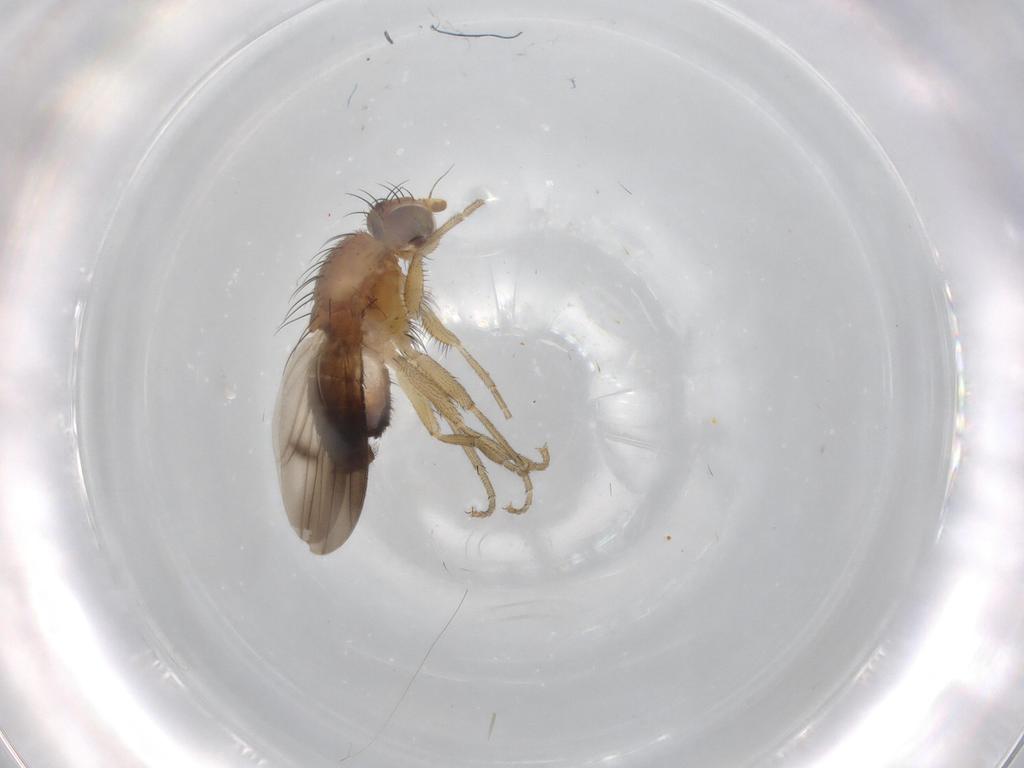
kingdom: Animalia
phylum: Arthropoda
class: Insecta
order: Diptera
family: Heleomyzidae
